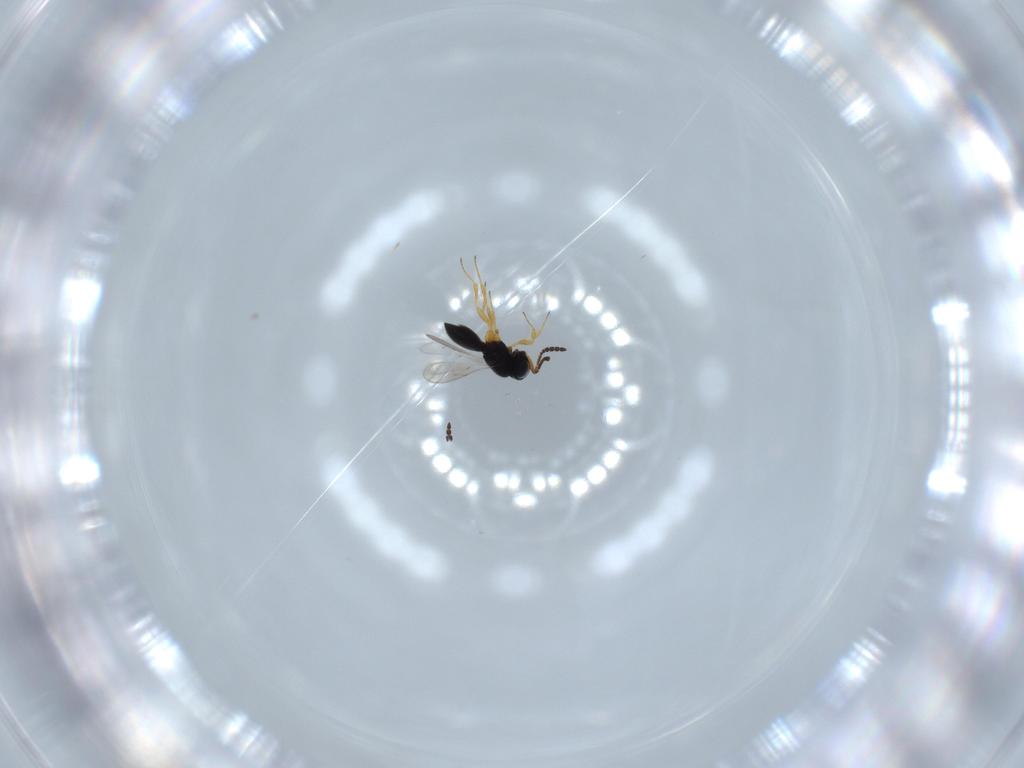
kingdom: Animalia
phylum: Arthropoda
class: Insecta
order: Hymenoptera
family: Scelionidae
